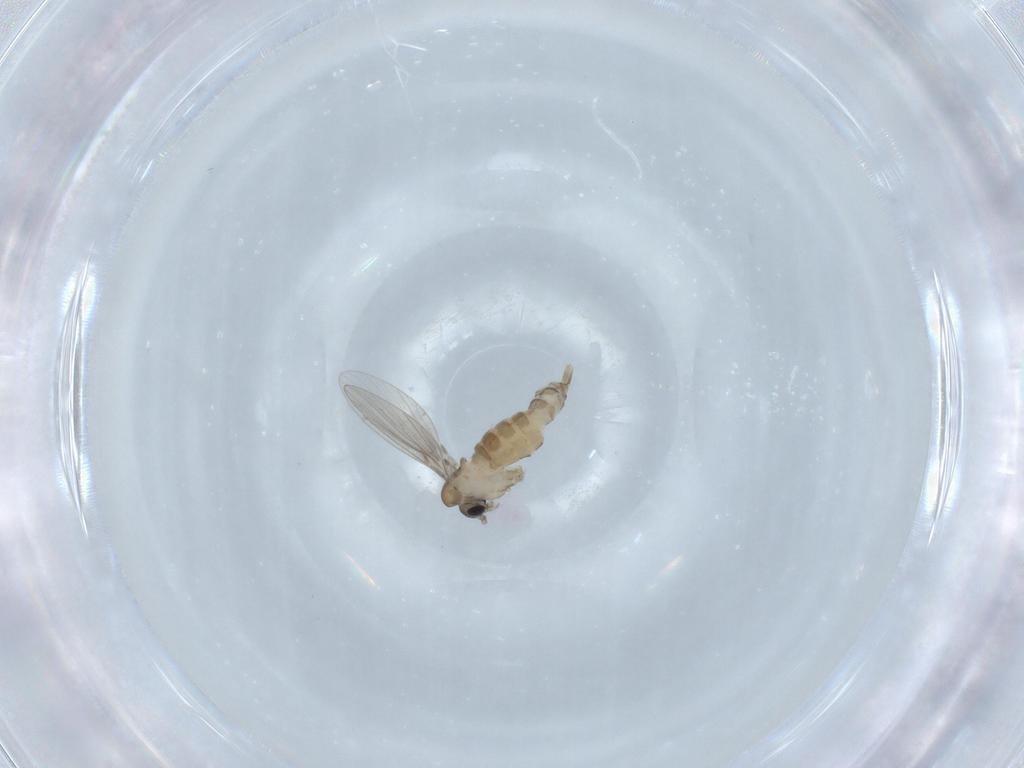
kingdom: Animalia
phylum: Arthropoda
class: Insecta
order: Diptera
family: Psychodidae
